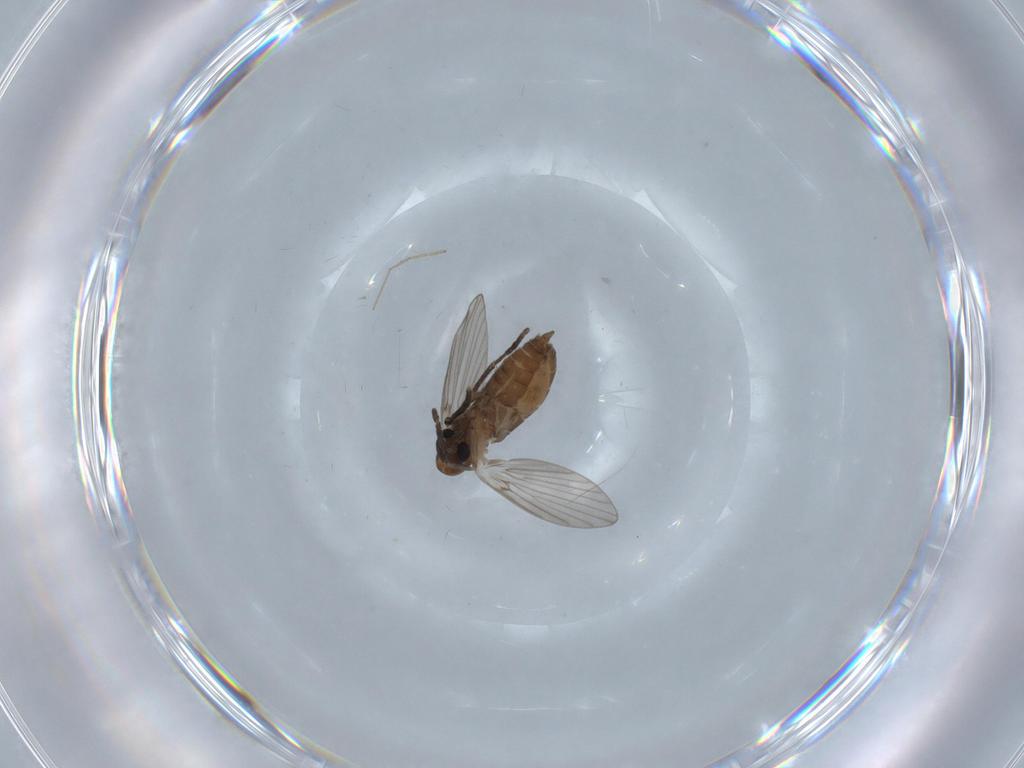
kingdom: Animalia
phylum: Arthropoda
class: Insecta
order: Diptera
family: Psychodidae
